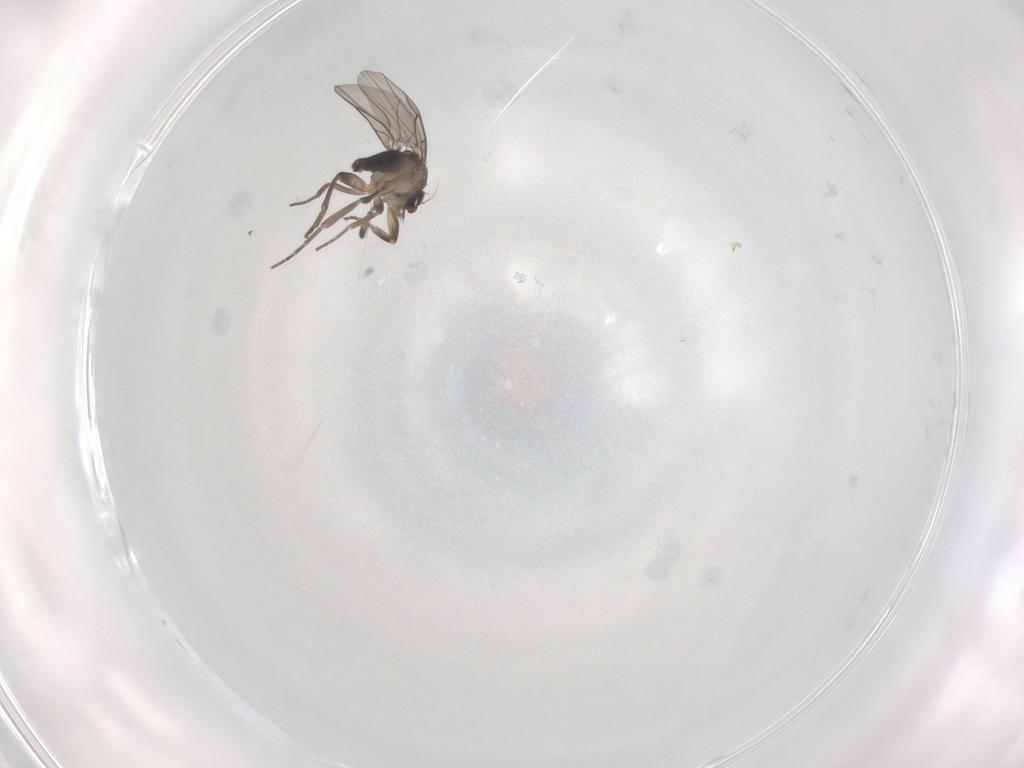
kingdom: Animalia
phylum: Arthropoda
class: Insecta
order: Diptera
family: Phoridae
